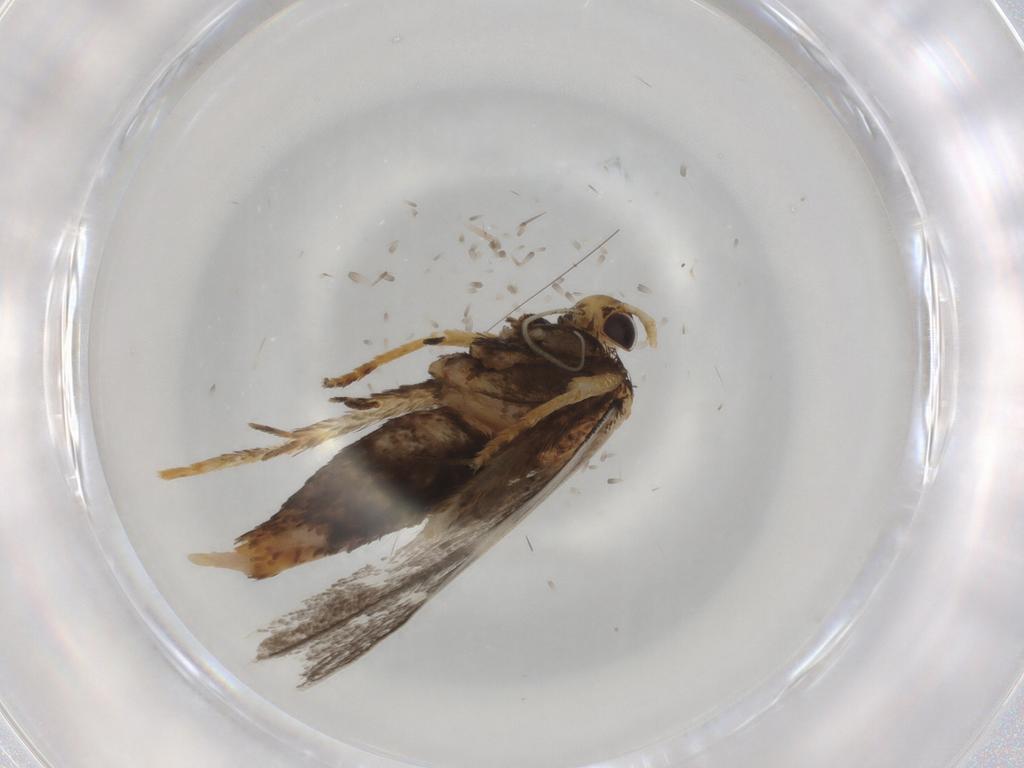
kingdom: Animalia
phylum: Arthropoda
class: Insecta
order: Lepidoptera
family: Lecithoceridae
